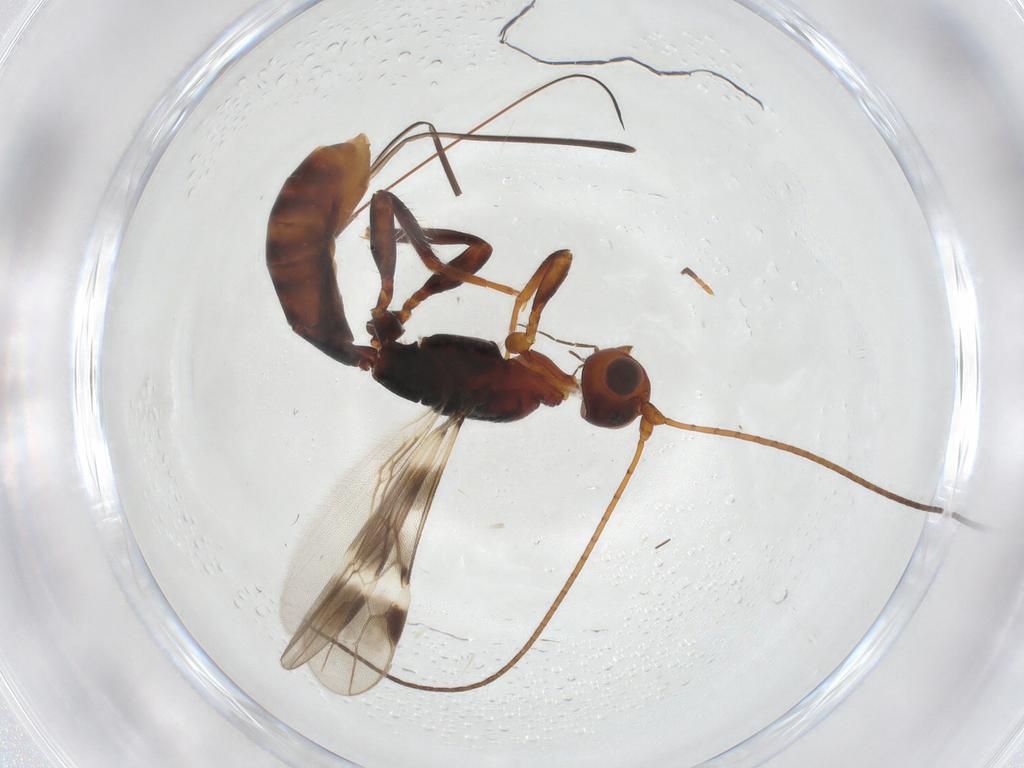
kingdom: Animalia
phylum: Arthropoda
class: Insecta
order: Hymenoptera
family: Braconidae
